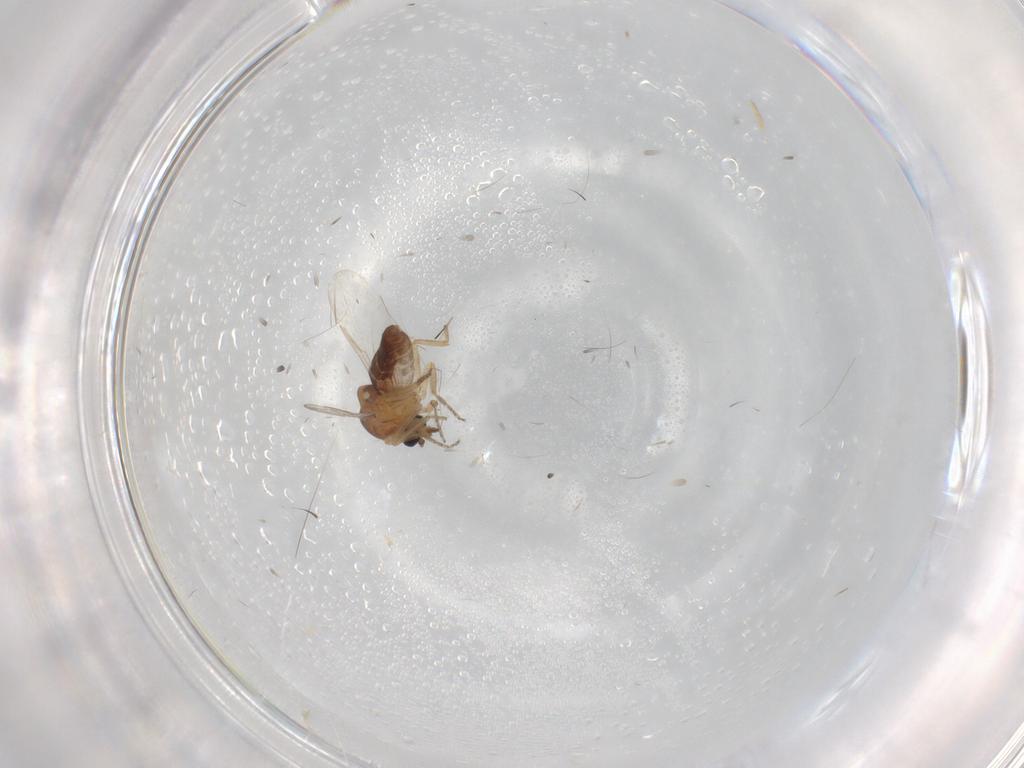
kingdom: Animalia
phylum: Arthropoda
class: Insecta
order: Diptera
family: Ceratopogonidae
